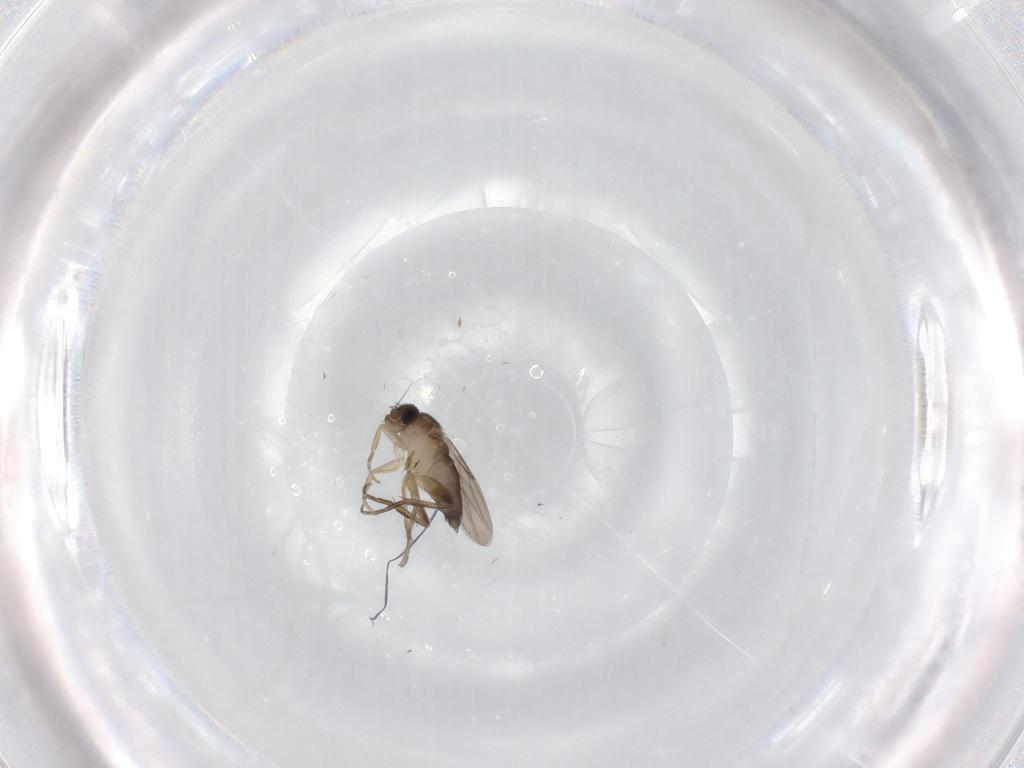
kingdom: Animalia
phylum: Arthropoda
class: Insecta
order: Diptera
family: Phoridae
